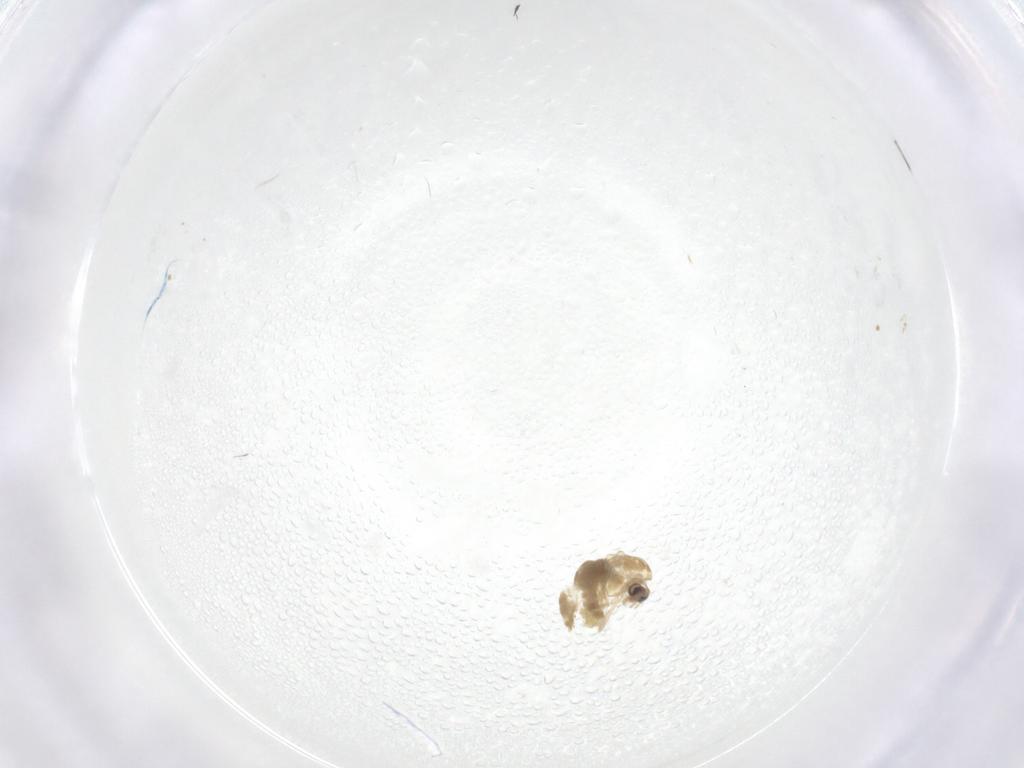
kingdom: Animalia
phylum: Arthropoda
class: Insecta
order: Diptera
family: Chironomidae
